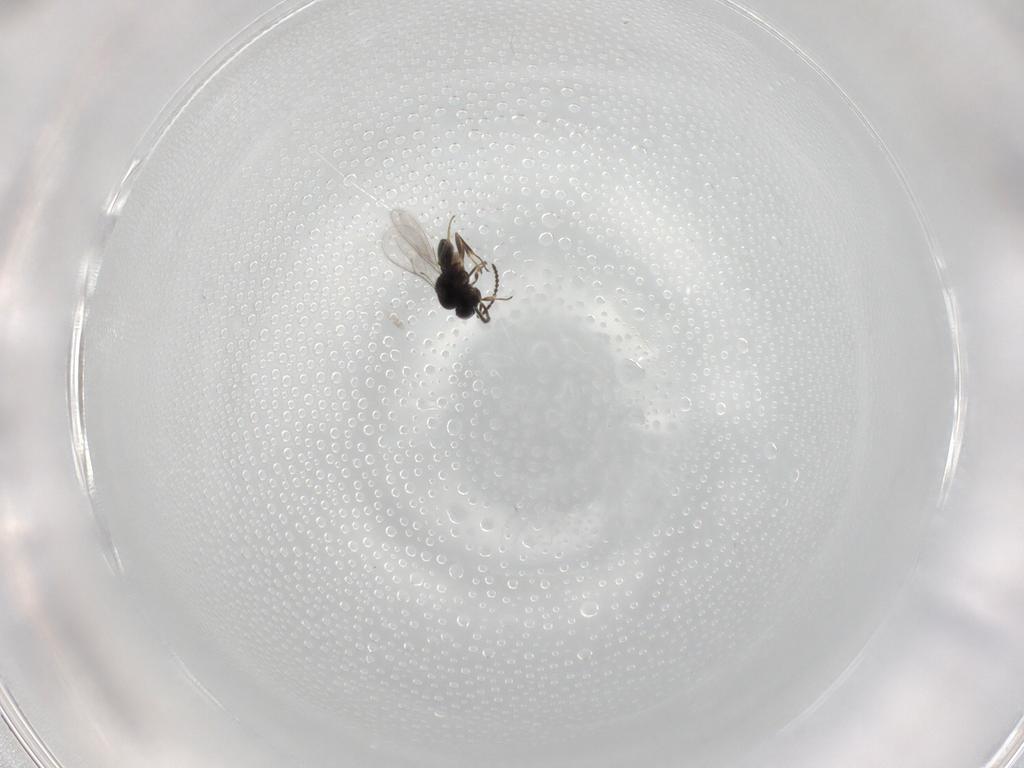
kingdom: Animalia
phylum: Arthropoda
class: Insecta
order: Hymenoptera
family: Scelionidae
